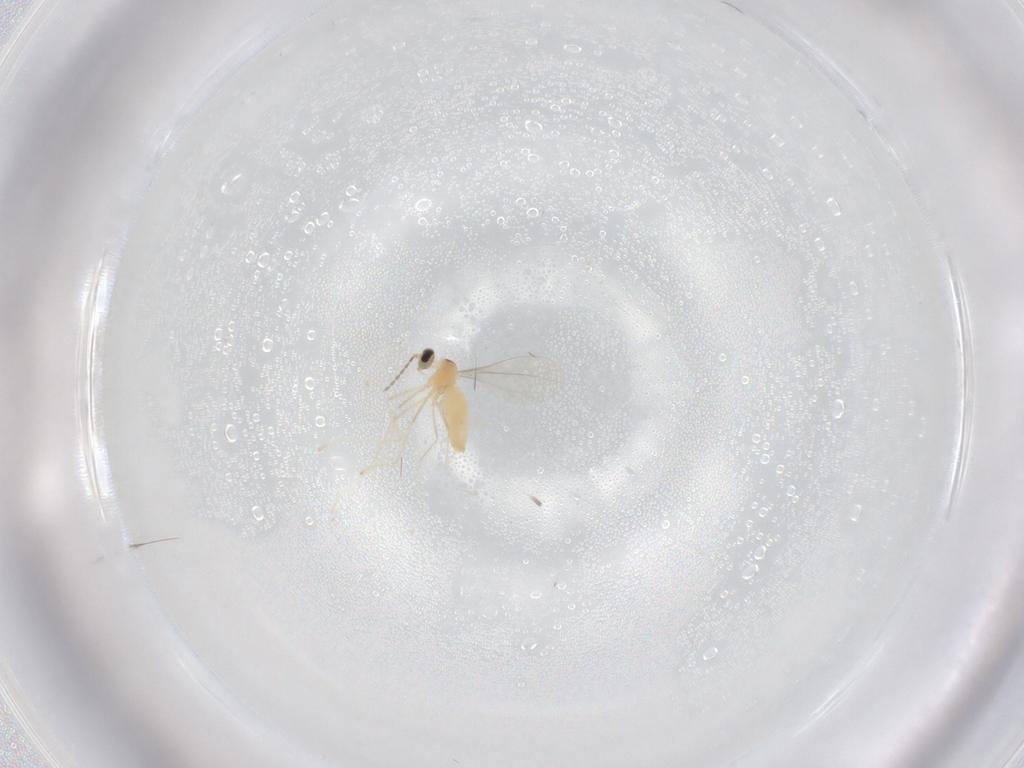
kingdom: Animalia
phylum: Arthropoda
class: Insecta
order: Diptera
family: Cecidomyiidae
